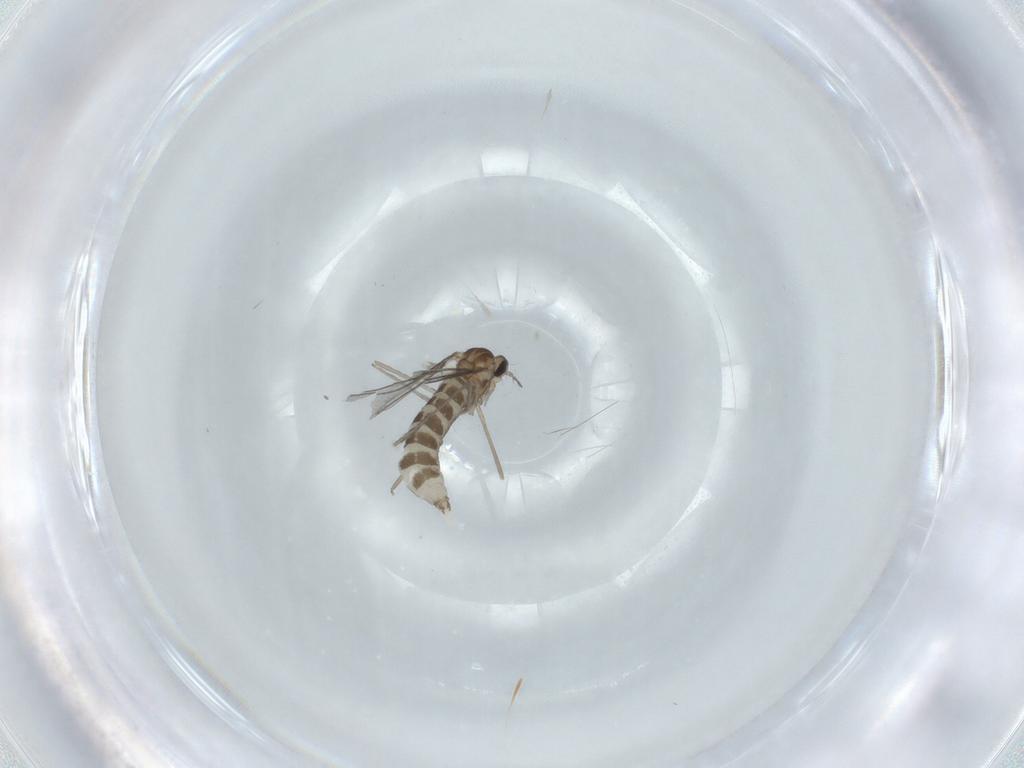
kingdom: Animalia
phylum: Arthropoda
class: Insecta
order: Diptera
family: Cecidomyiidae
